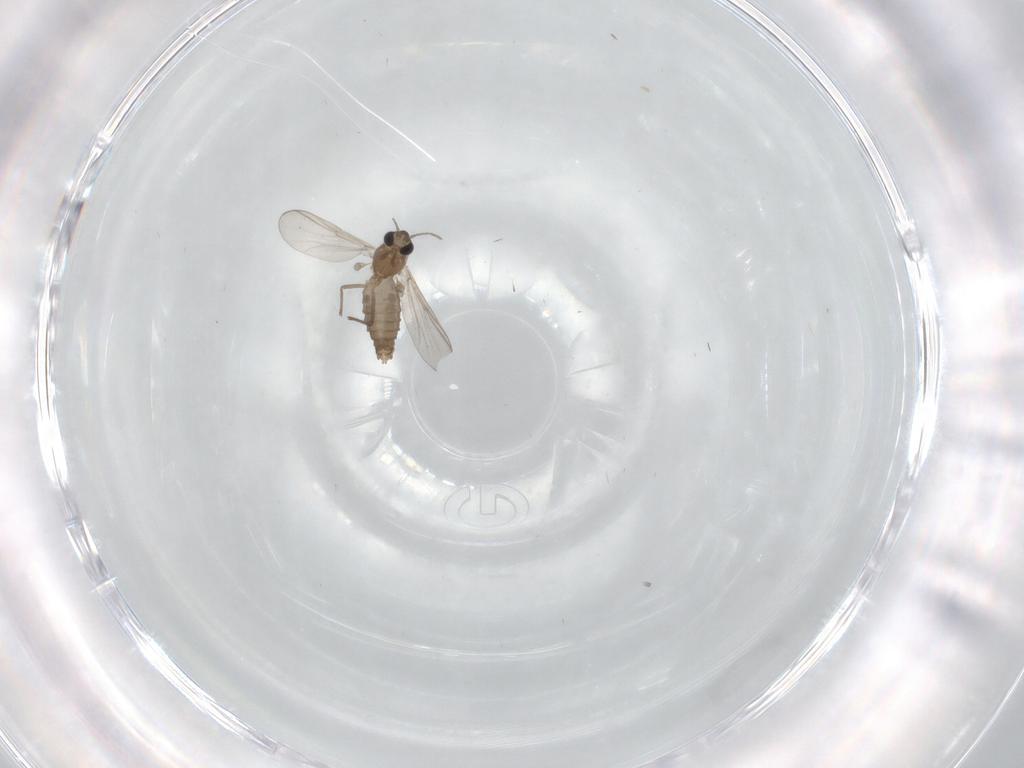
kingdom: Animalia
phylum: Arthropoda
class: Insecta
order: Diptera
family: Chironomidae
